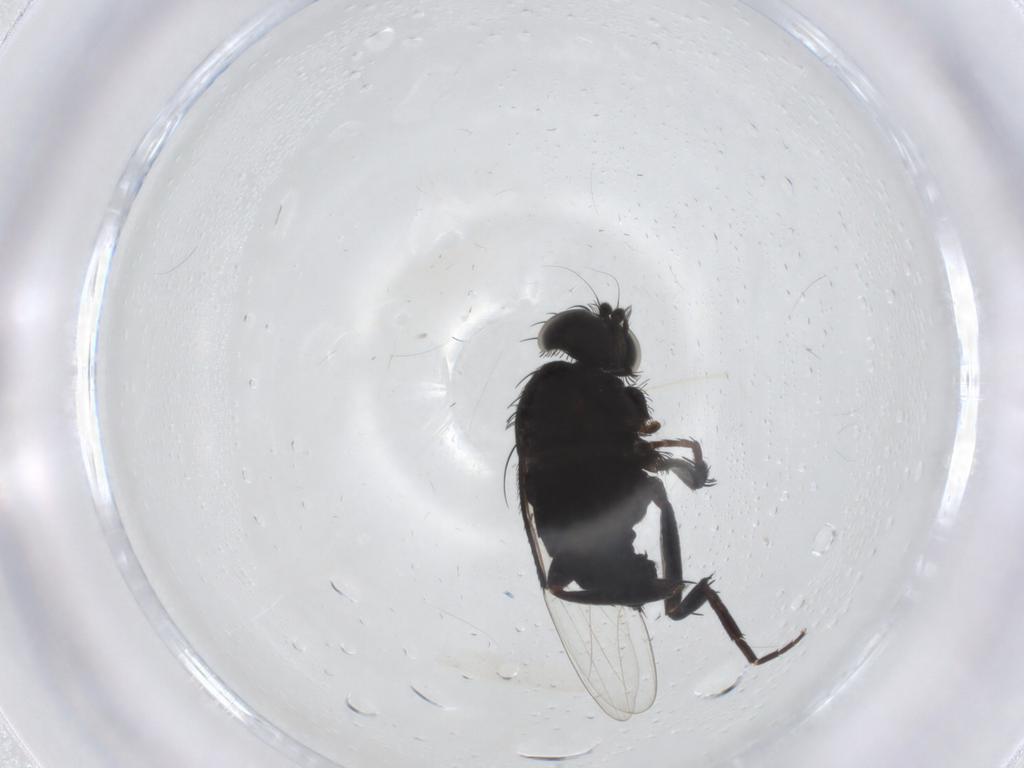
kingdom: Animalia
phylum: Arthropoda
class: Insecta
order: Diptera
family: Phoridae
